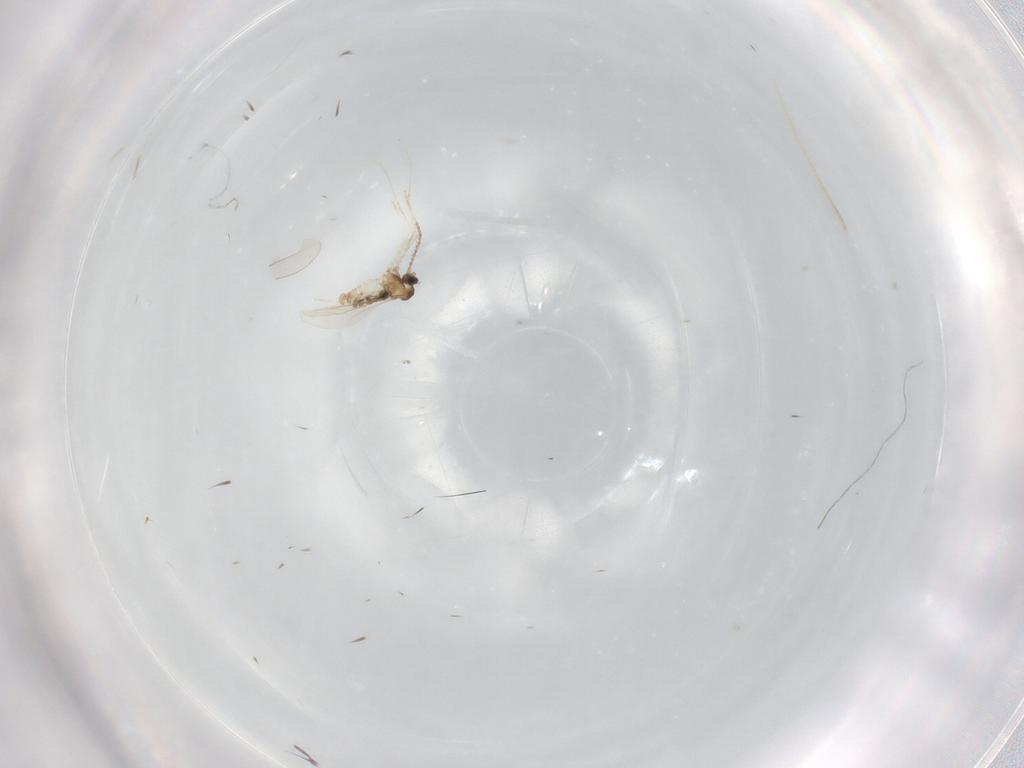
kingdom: Animalia
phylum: Arthropoda
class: Insecta
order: Diptera
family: Cecidomyiidae
